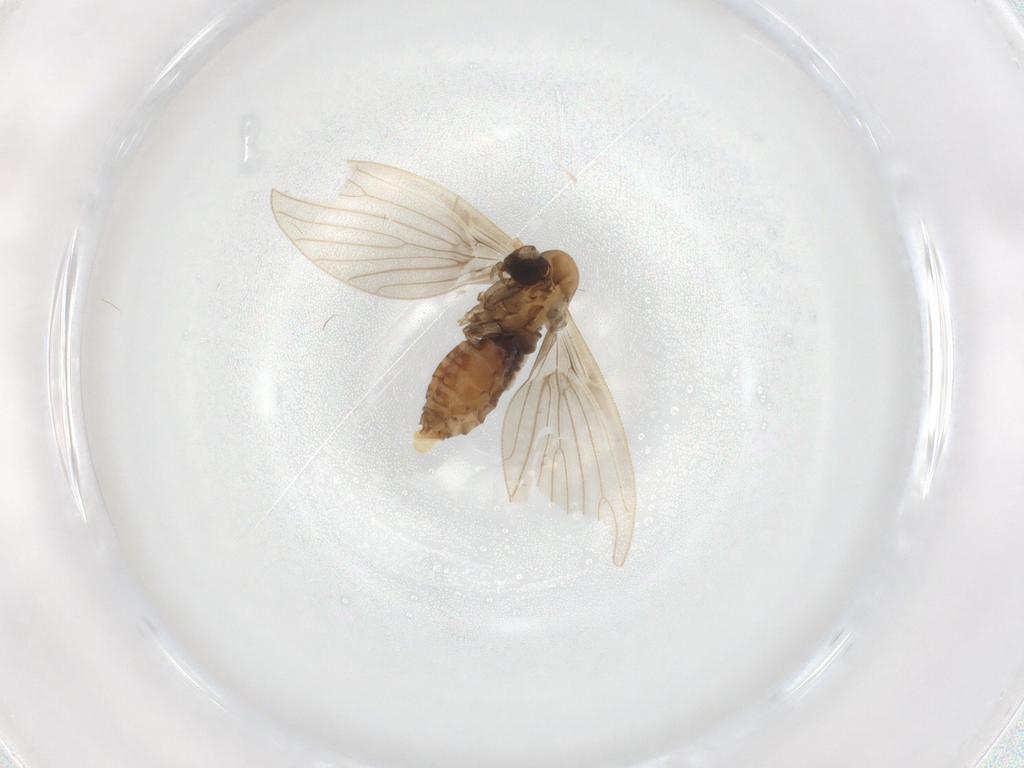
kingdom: Animalia
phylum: Arthropoda
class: Insecta
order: Diptera
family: Psychodidae
